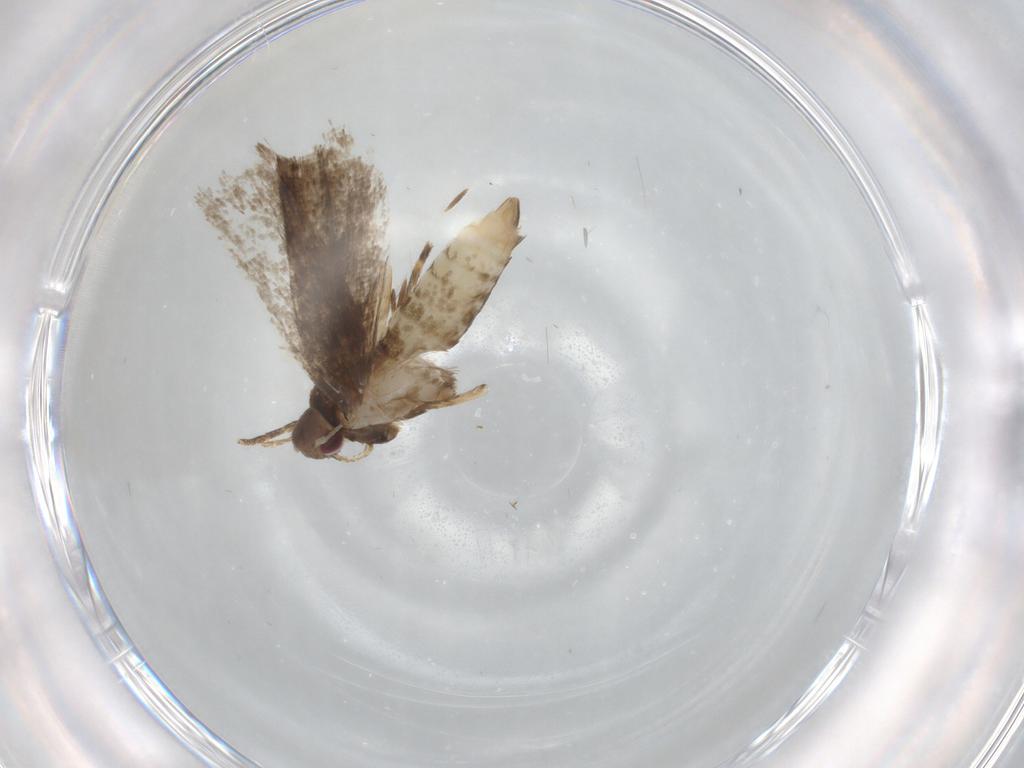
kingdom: Animalia
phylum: Arthropoda
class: Insecta
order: Lepidoptera
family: Gelechiidae
